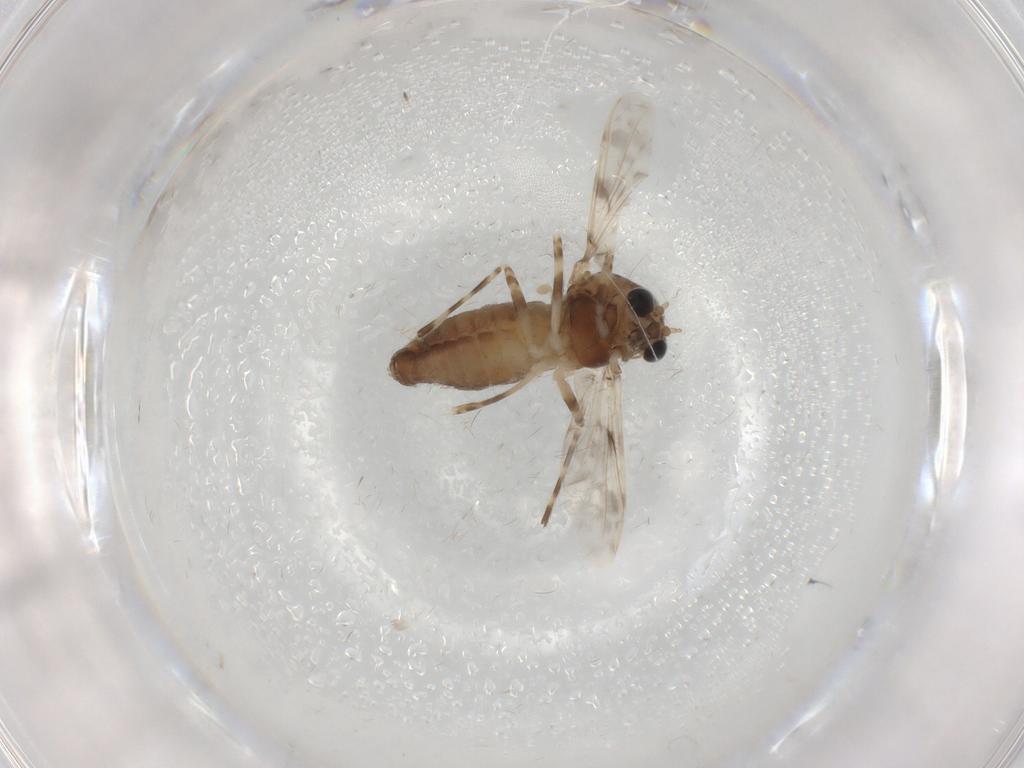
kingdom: Animalia
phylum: Arthropoda
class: Insecta
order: Diptera
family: Chironomidae
